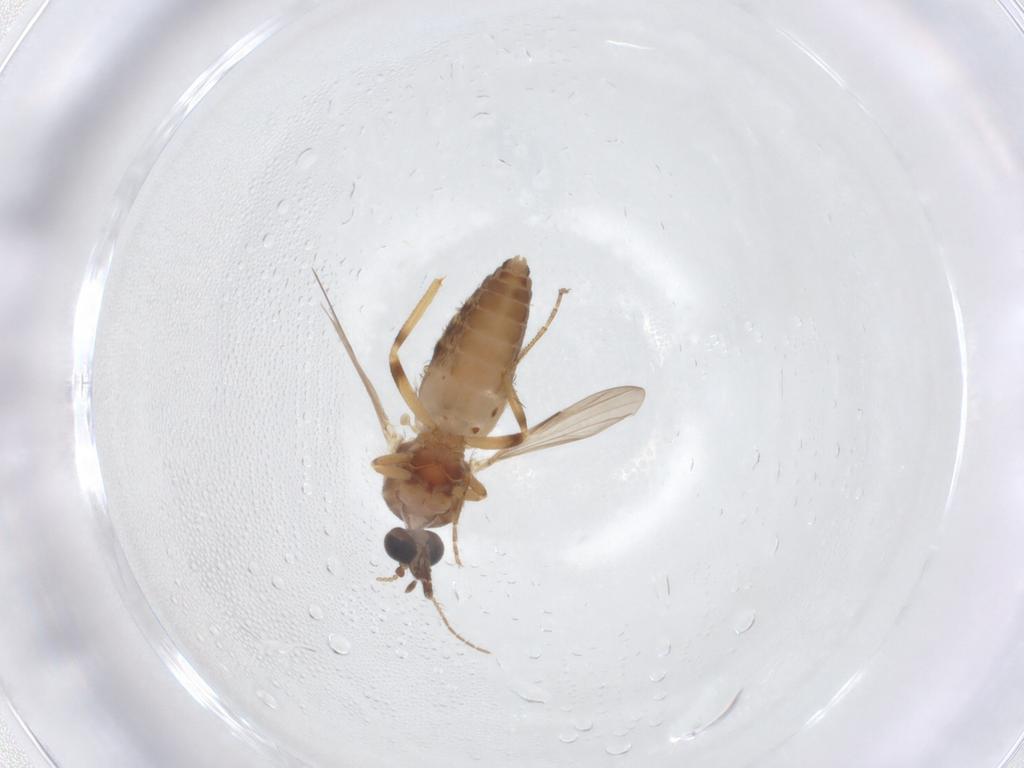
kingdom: Animalia
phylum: Arthropoda
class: Insecta
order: Diptera
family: Ceratopogonidae
